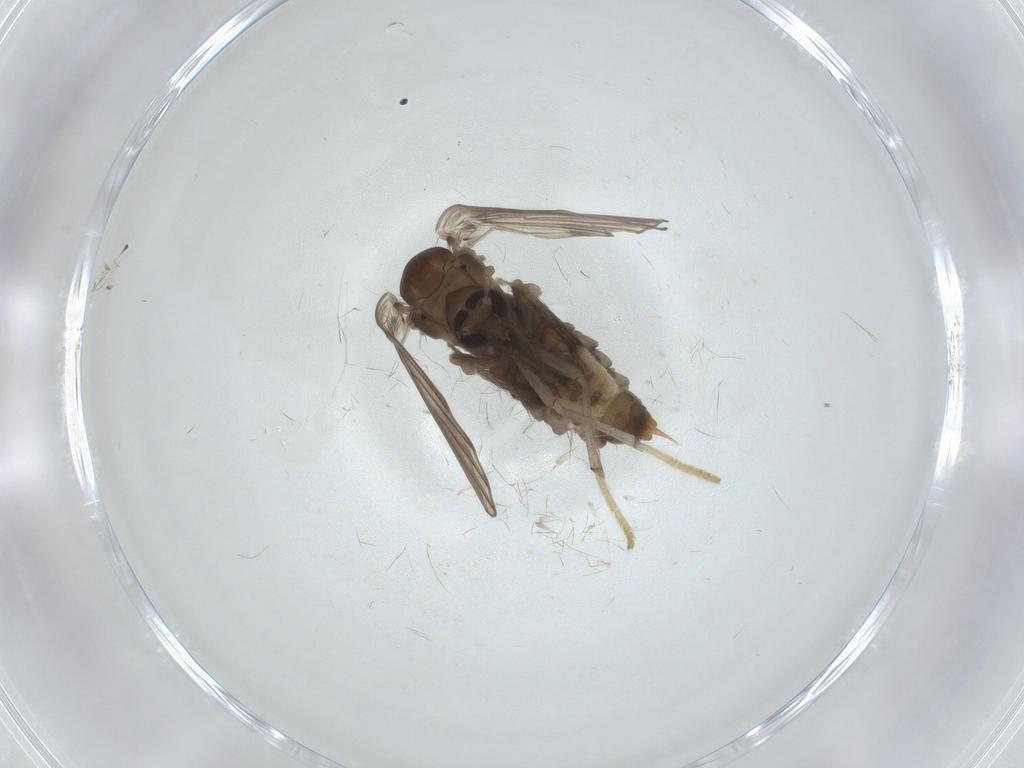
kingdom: Animalia
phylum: Arthropoda
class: Insecta
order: Diptera
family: Psychodidae
